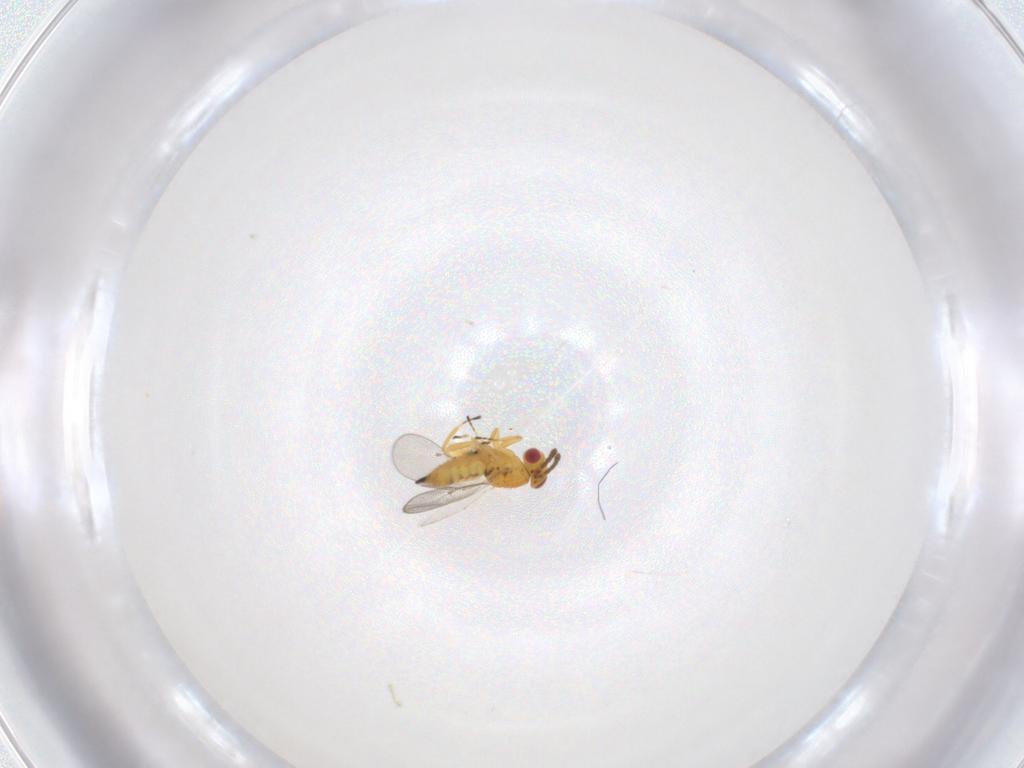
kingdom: Animalia
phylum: Arthropoda
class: Insecta
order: Hymenoptera
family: Eulophidae
